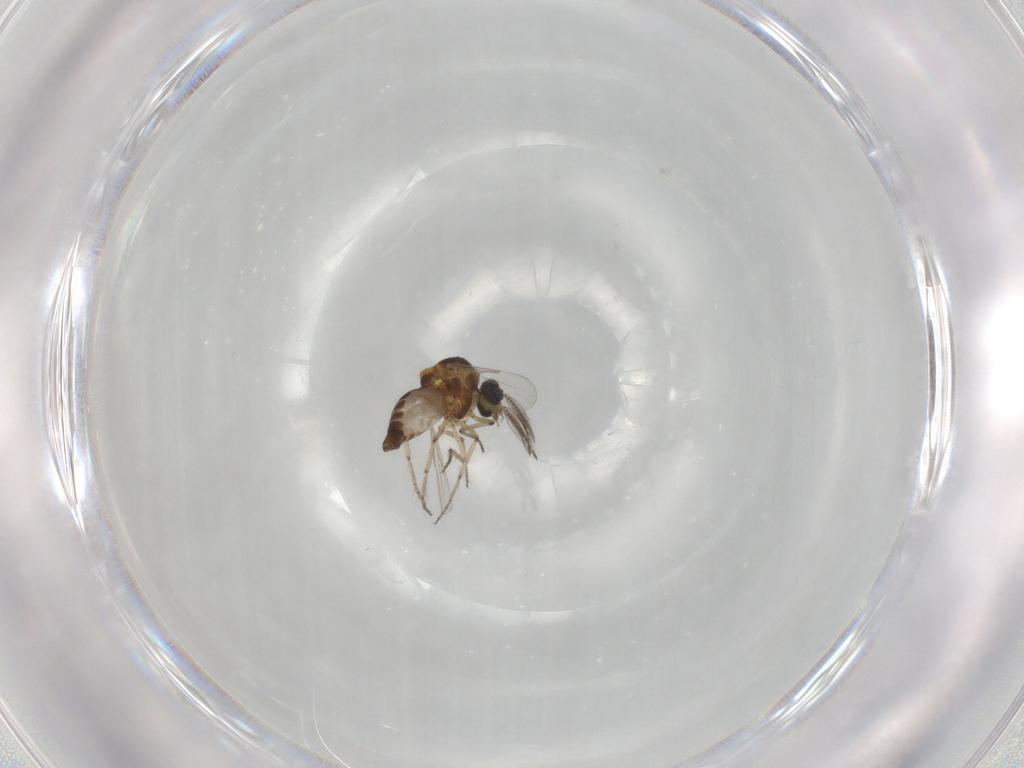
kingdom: Animalia
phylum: Arthropoda
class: Insecta
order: Diptera
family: Ceratopogonidae
